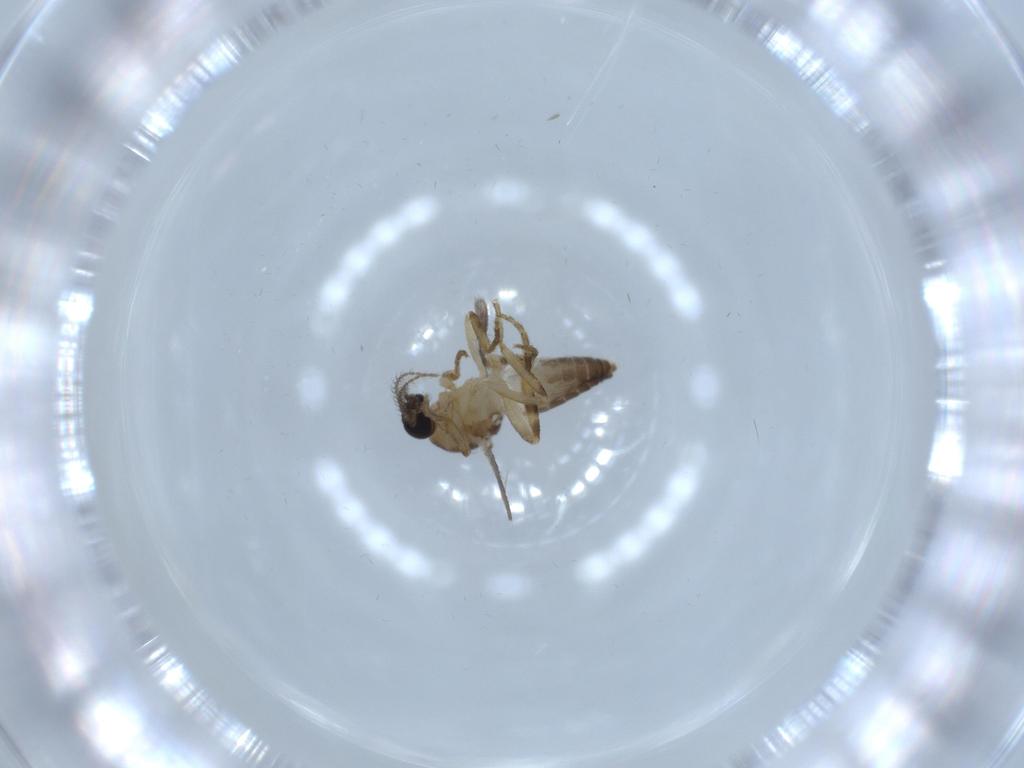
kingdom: Animalia
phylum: Arthropoda
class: Insecta
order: Diptera
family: Ceratopogonidae
